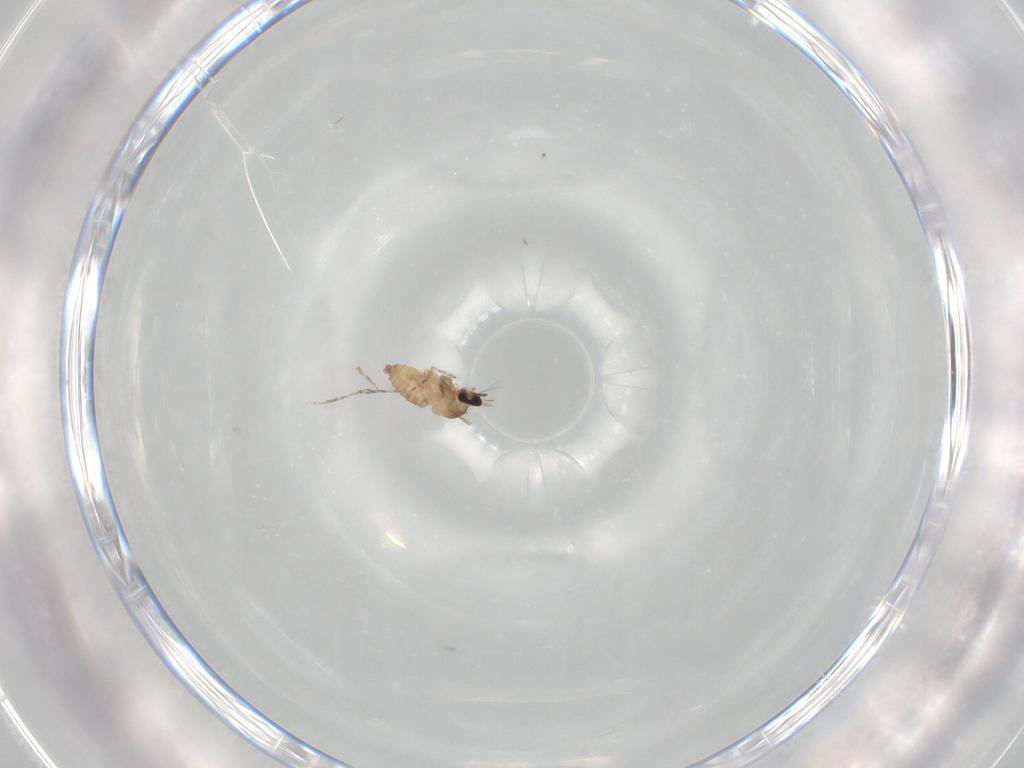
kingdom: Animalia
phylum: Arthropoda
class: Insecta
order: Diptera
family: Cecidomyiidae
